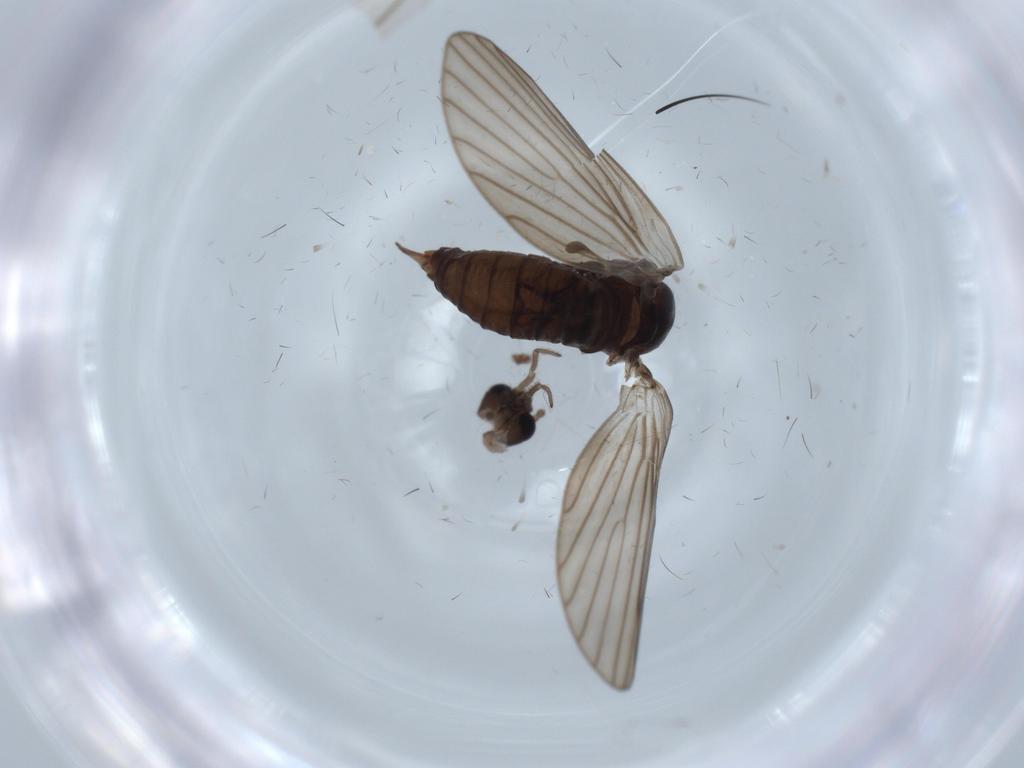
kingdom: Animalia
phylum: Arthropoda
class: Insecta
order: Diptera
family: Psychodidae
